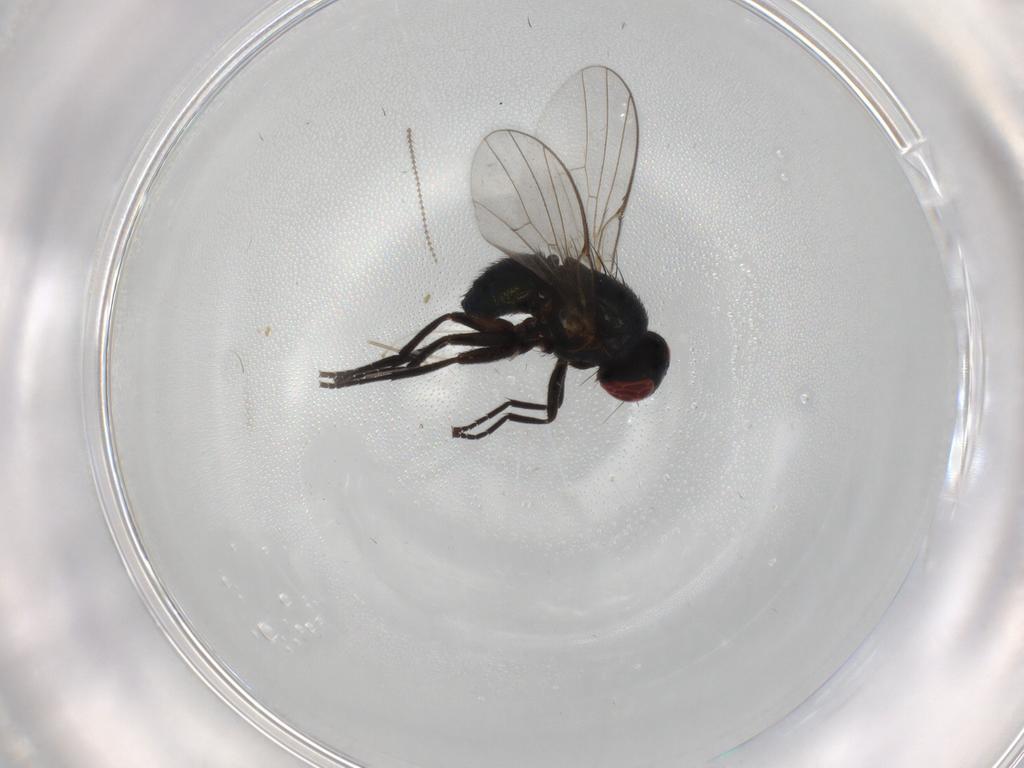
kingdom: Animalia
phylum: Arthropoda
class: Insecta
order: Diptera
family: Agromyzidae
